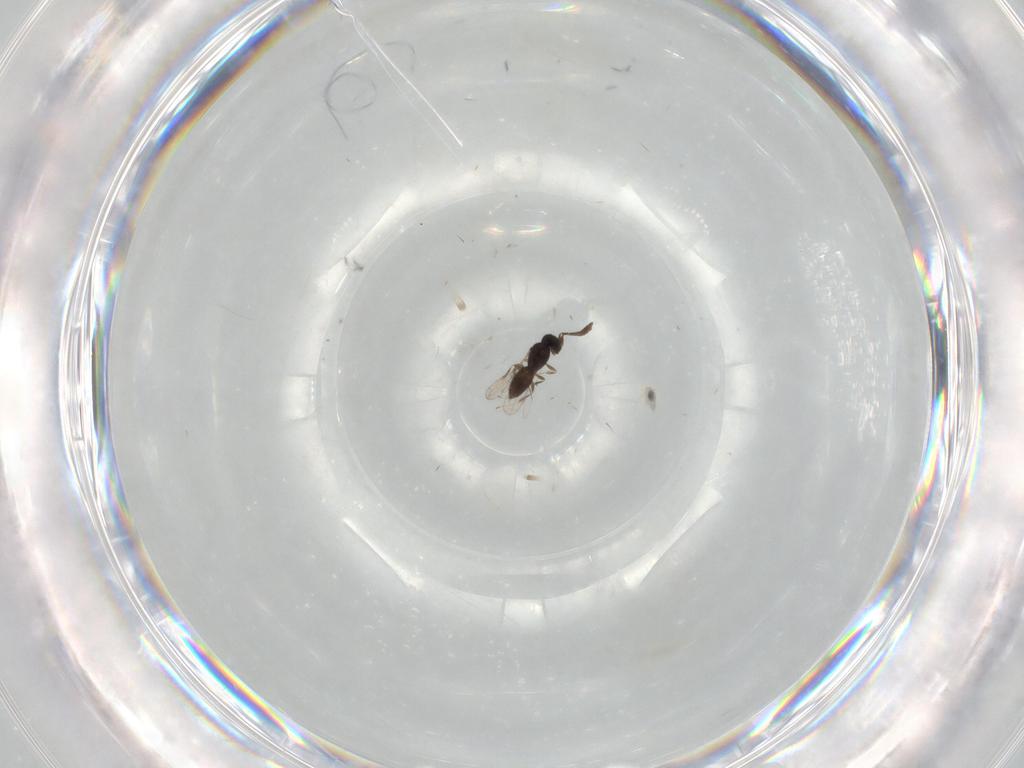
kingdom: Animalia
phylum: Arthropoda
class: Insecta
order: Hymenoptera
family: Scelionidae
